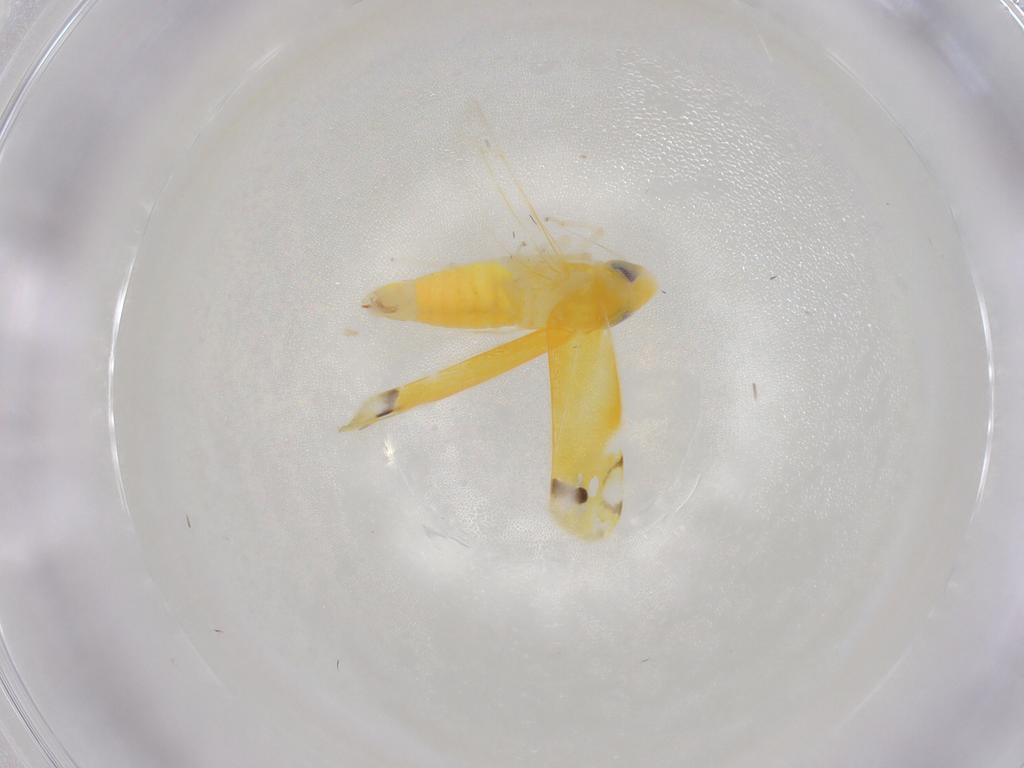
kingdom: Animalia
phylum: Arthropoda
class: Insecta
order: Hemiptera
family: Cicadellidae
